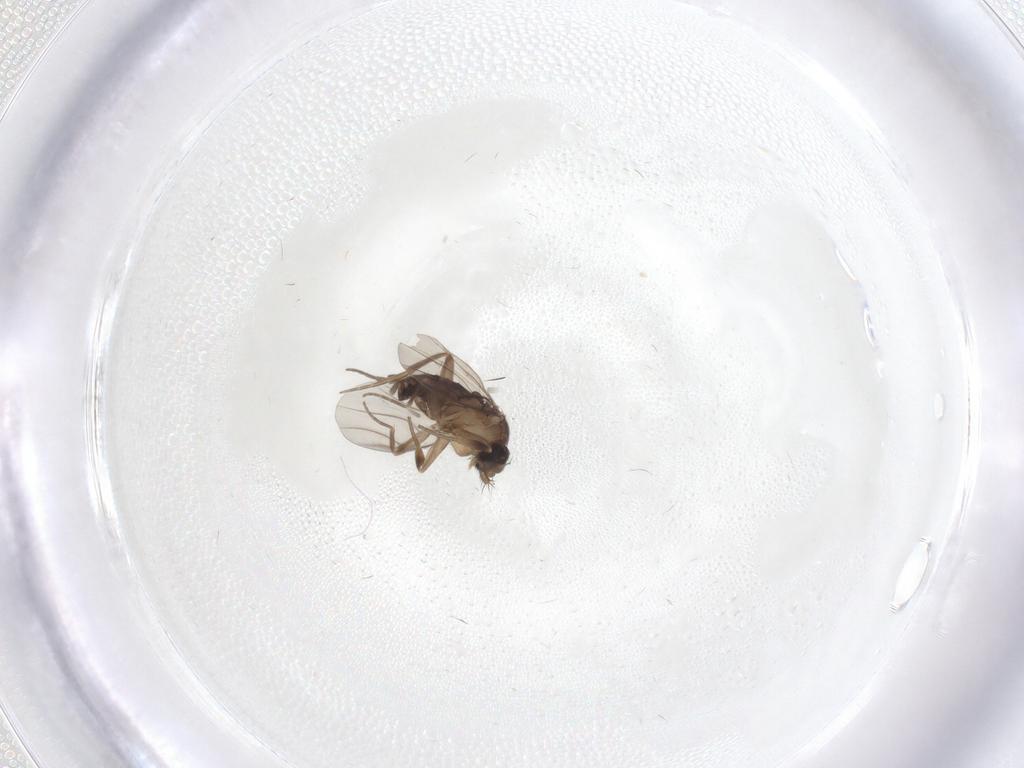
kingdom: Animalia
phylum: Arthropoda
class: Insecta
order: Diptera
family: Phoridae
